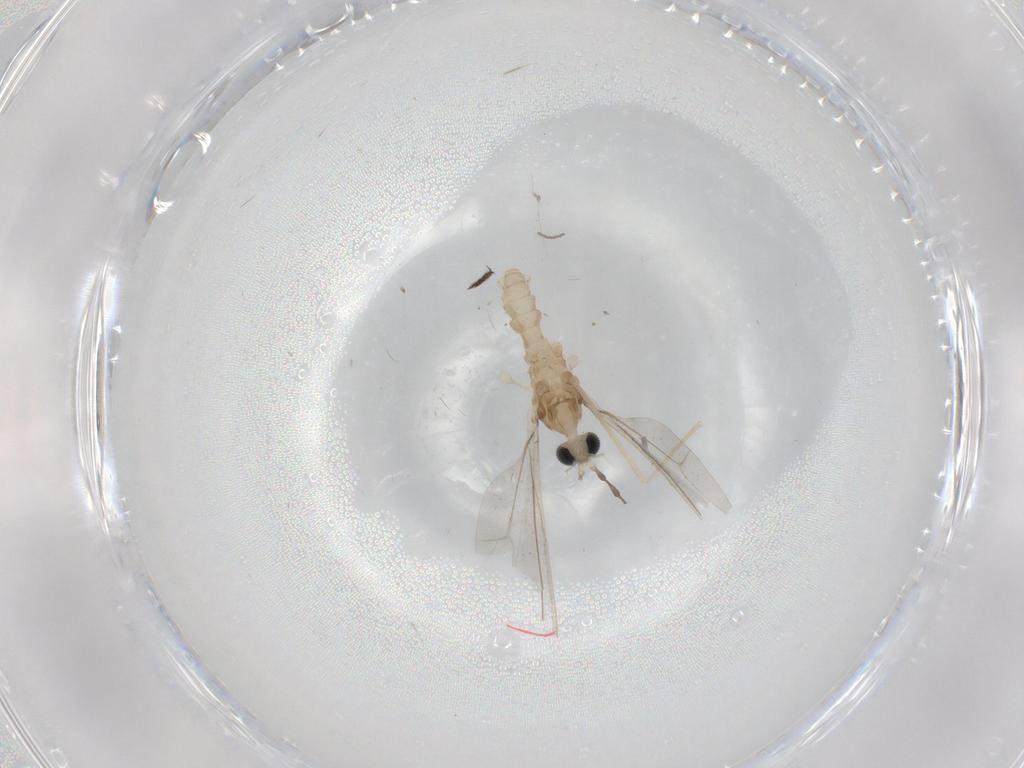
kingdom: Animalia
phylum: Arthropoda
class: Insecta
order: Diptera
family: Cecidomyiidae
